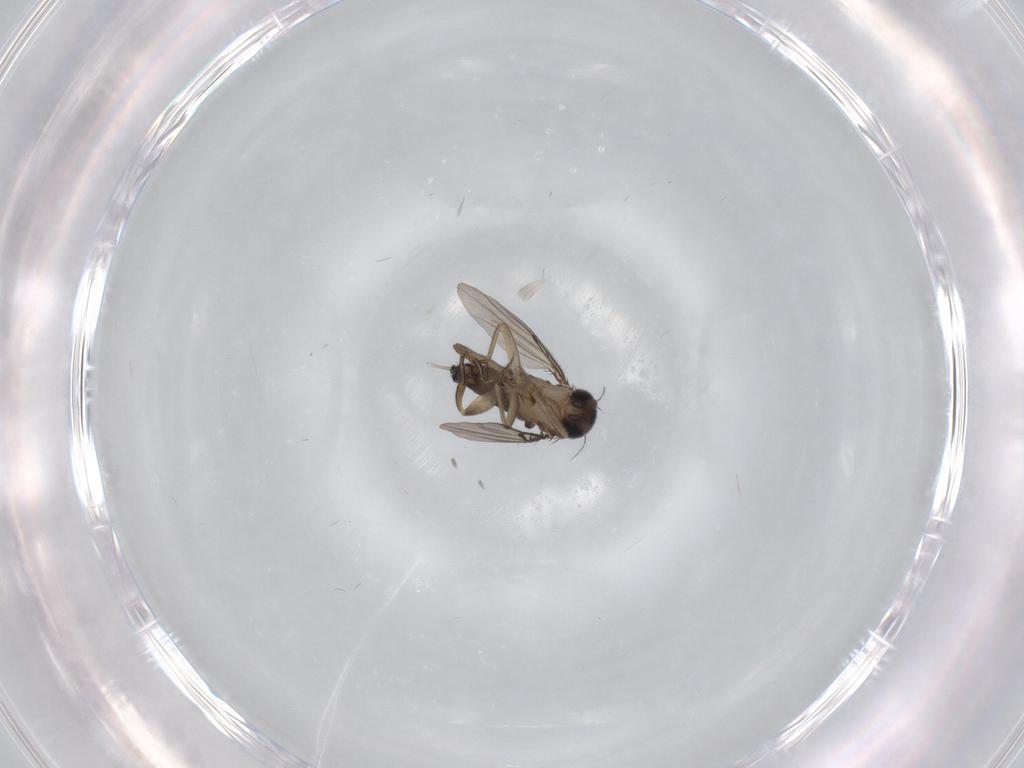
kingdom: Animalia
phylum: Arthropoda
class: Insecta
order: Diptera
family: Phoridae
